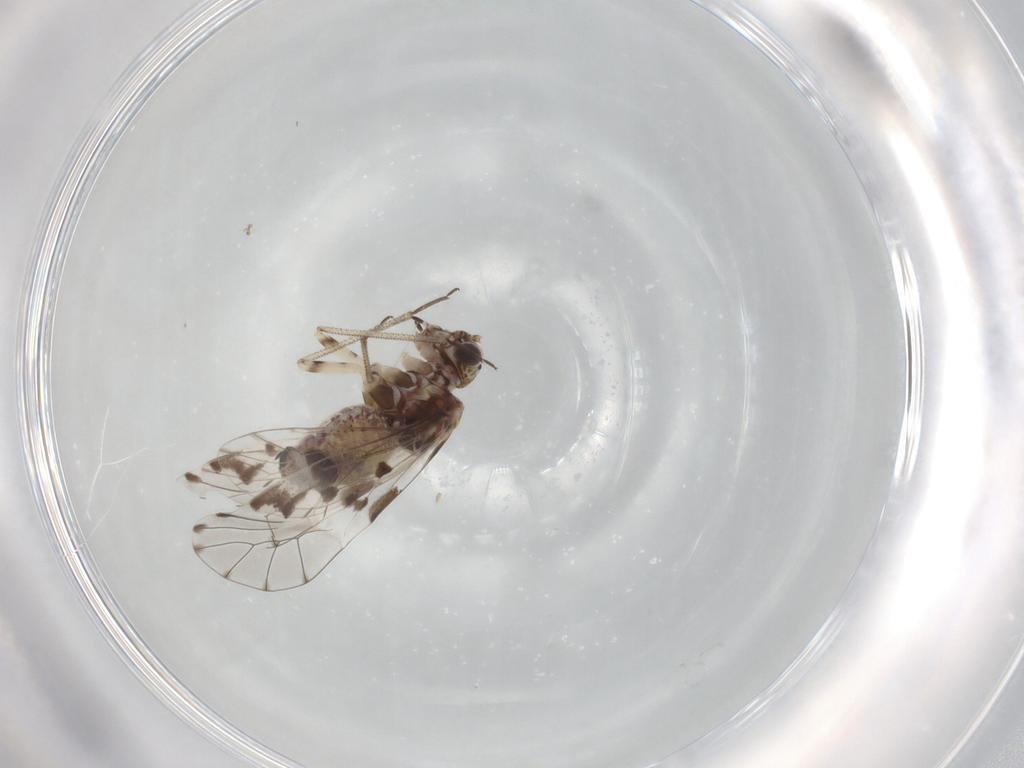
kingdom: Animalia
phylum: Arthropoda
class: Insecta
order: Psocodea
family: Myopsocidae
